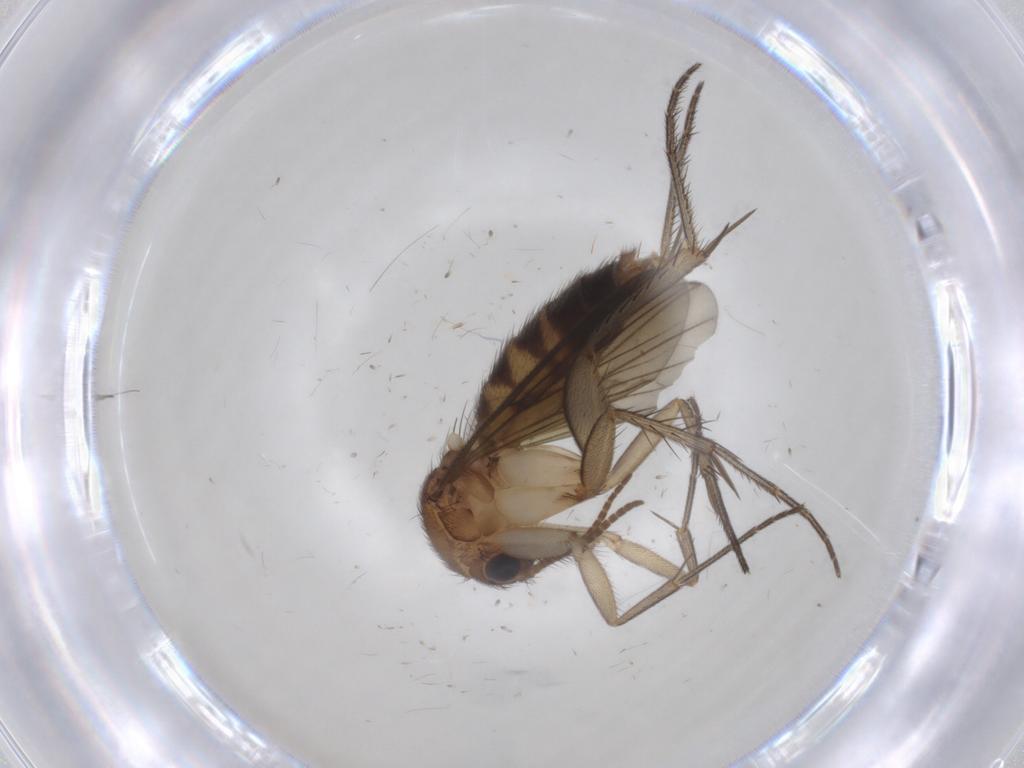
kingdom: Animalia
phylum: Arthropoda
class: Insecta
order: Diptera
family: Mycetophilidae
